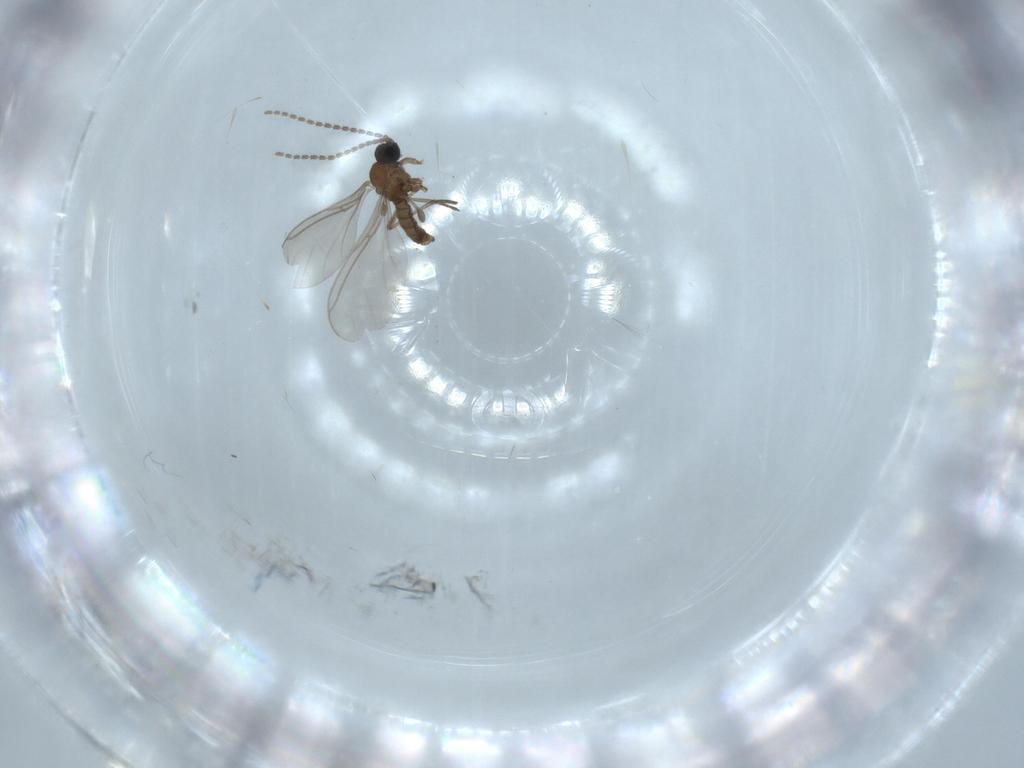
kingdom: Animalia
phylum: Arthropoda
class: Insecta
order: Diptera
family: Sciaridae
